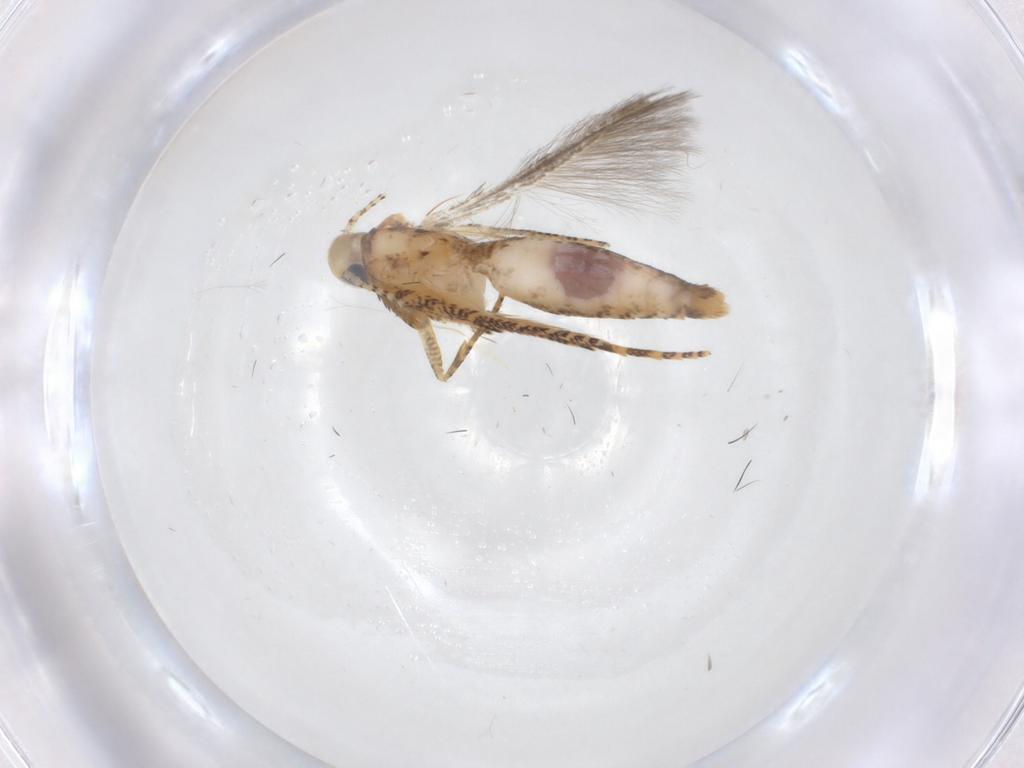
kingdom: Animalia
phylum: Arthropoda
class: Insecta
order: Lepidoptera
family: Gelechiidae
